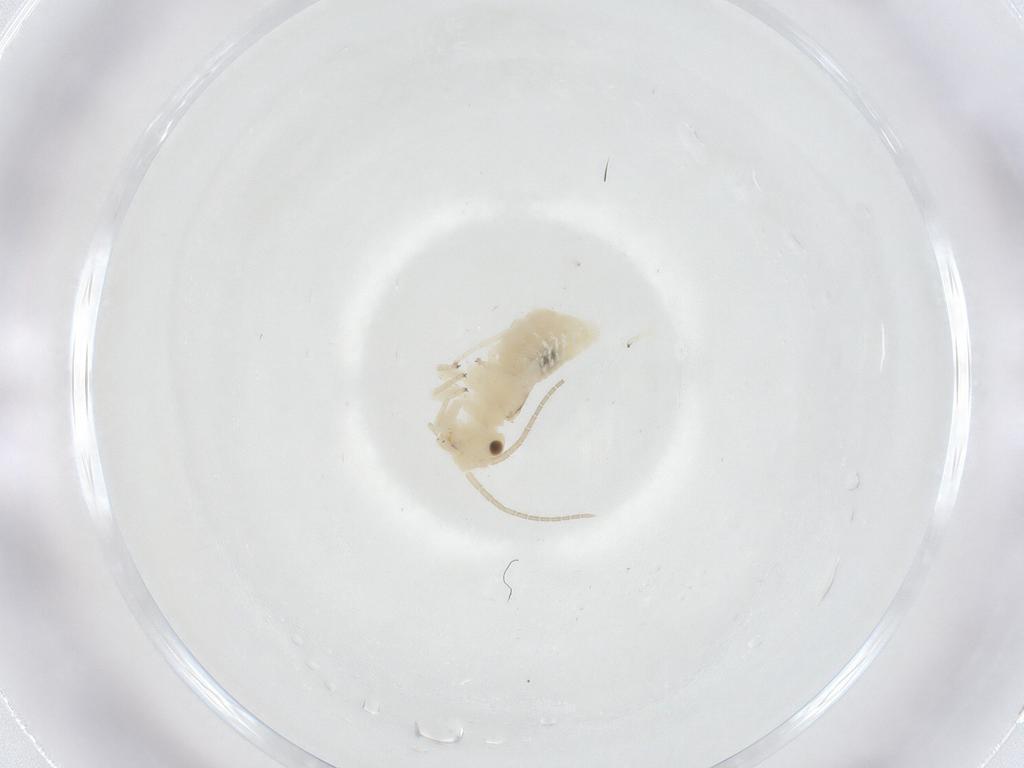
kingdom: Animalia
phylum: Arthropoda
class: Insecta
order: Psocodea
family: Caeciliusidae
